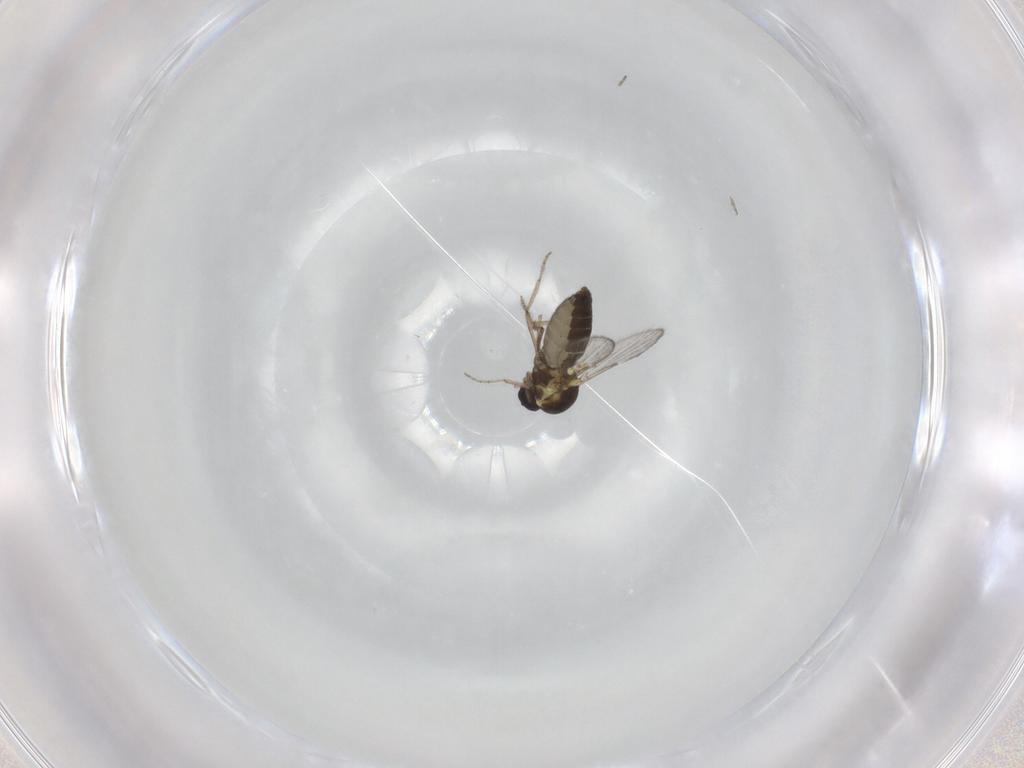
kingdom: Animalia
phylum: Arthropoda
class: Insecta
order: Diptera
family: Ceratopogonidae
